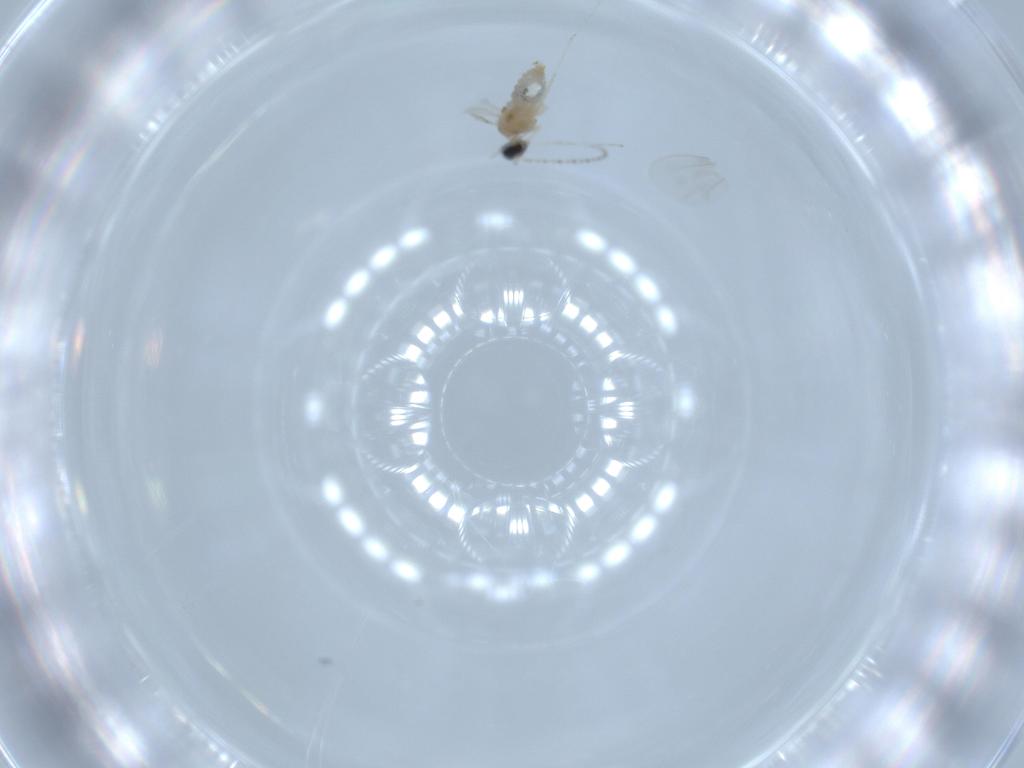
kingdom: Animalia
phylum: Arthropoda
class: Insecta
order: Diptera
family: Cecidomyiidae
